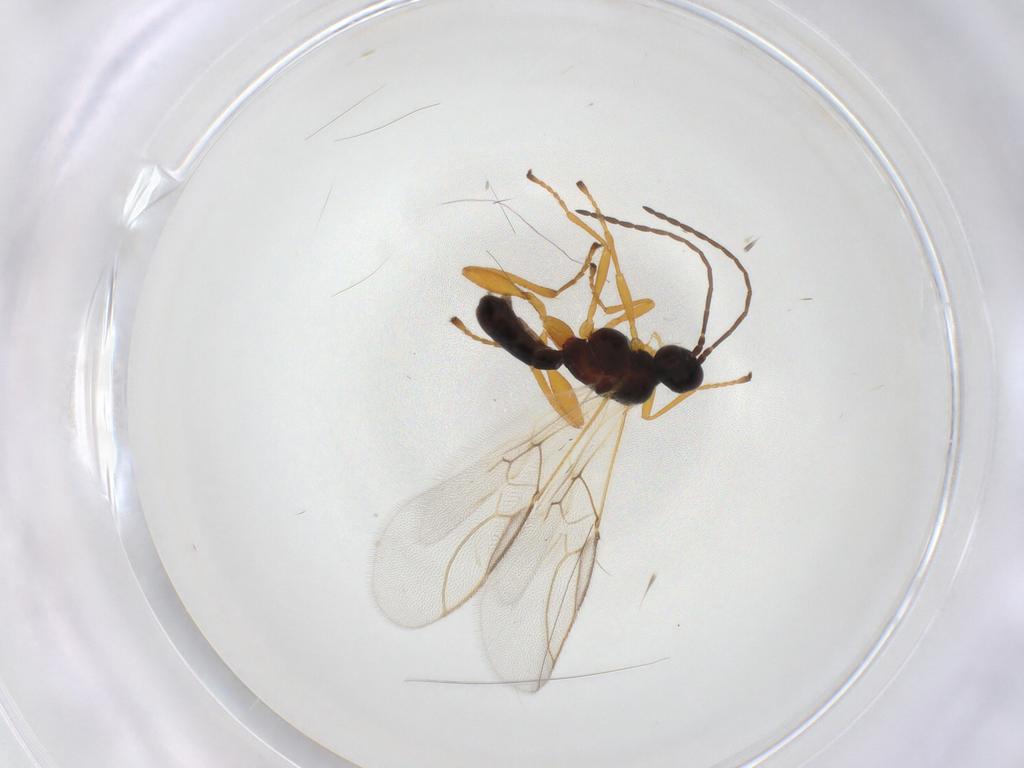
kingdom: Animalia
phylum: Arthropoda
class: Insecta
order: Hymenoptera
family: Braconidae
